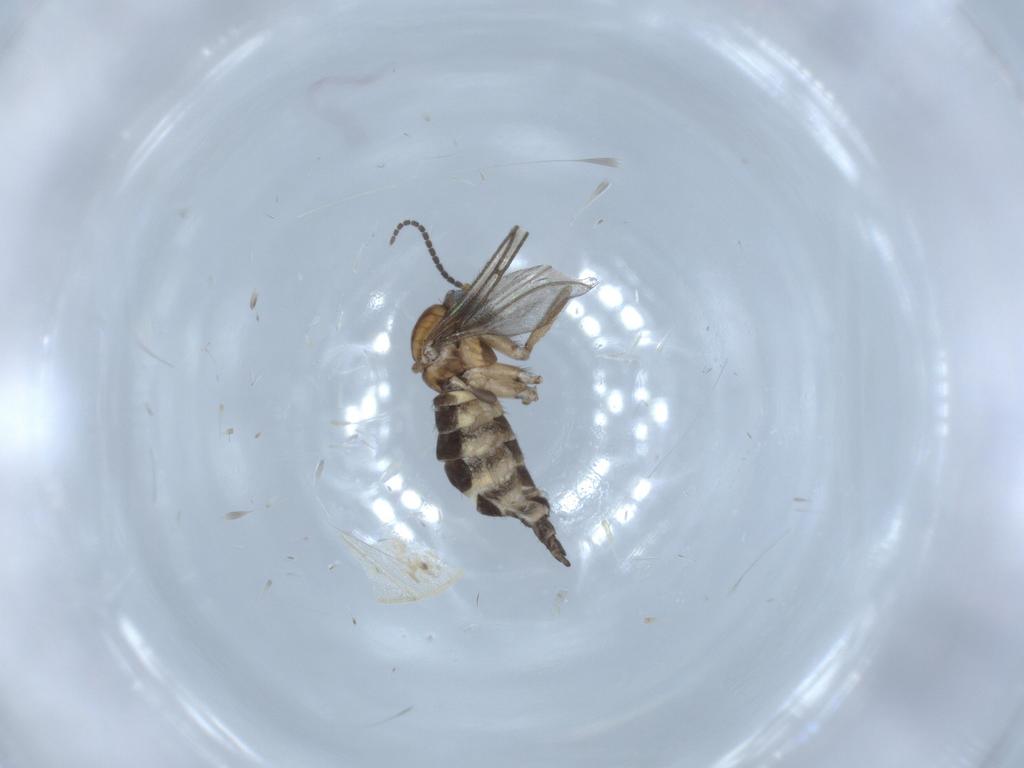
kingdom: Animalia
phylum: Arthropoda
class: Insecta
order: Diptera
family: Sciaridae
